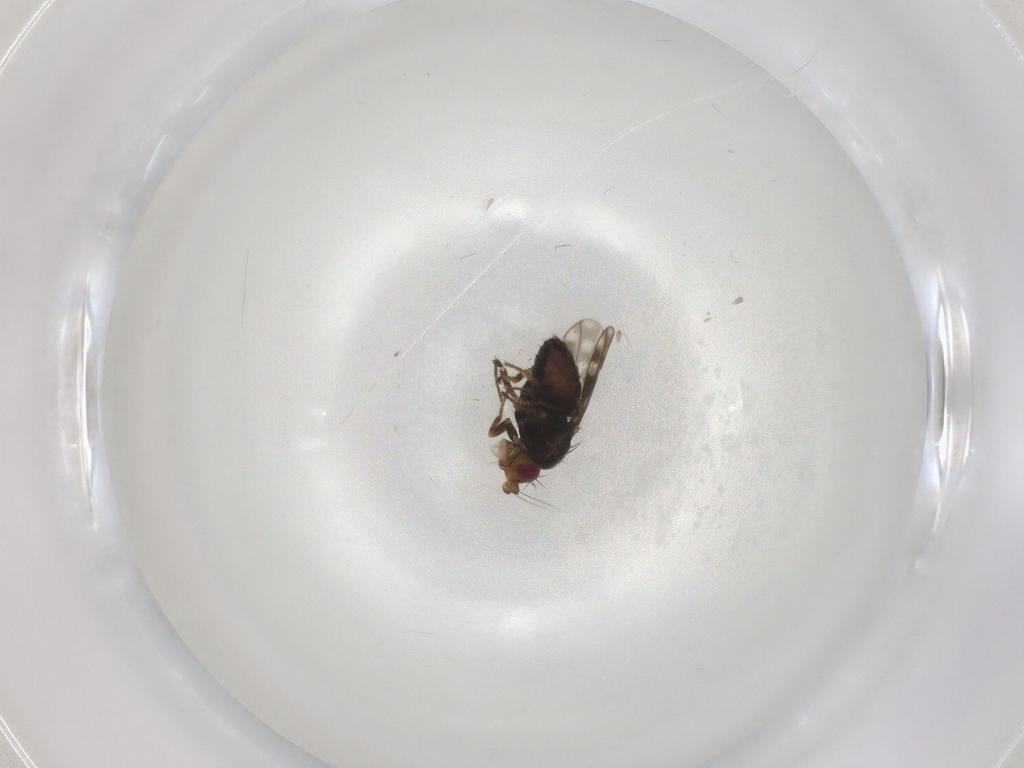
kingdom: Animalia
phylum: Arthropoda
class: Insecta
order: Diptera
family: Sphaeroceridae
